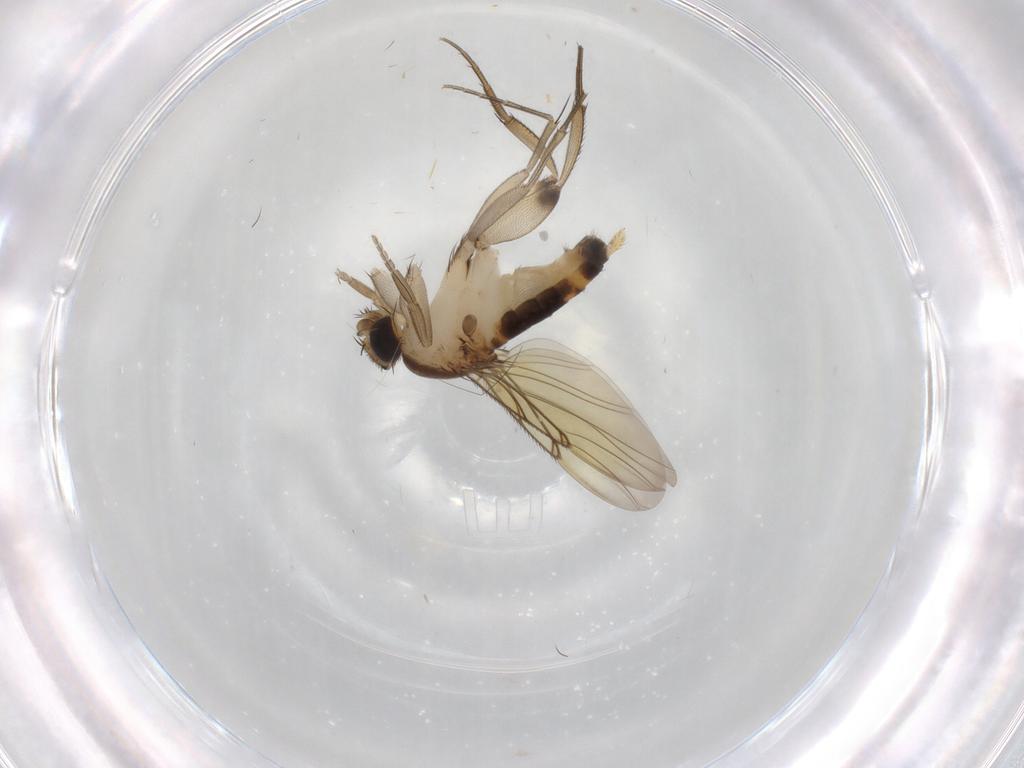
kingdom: Animalia
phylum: Arthropoda
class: Insecta
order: Diptera
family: Phoridae
